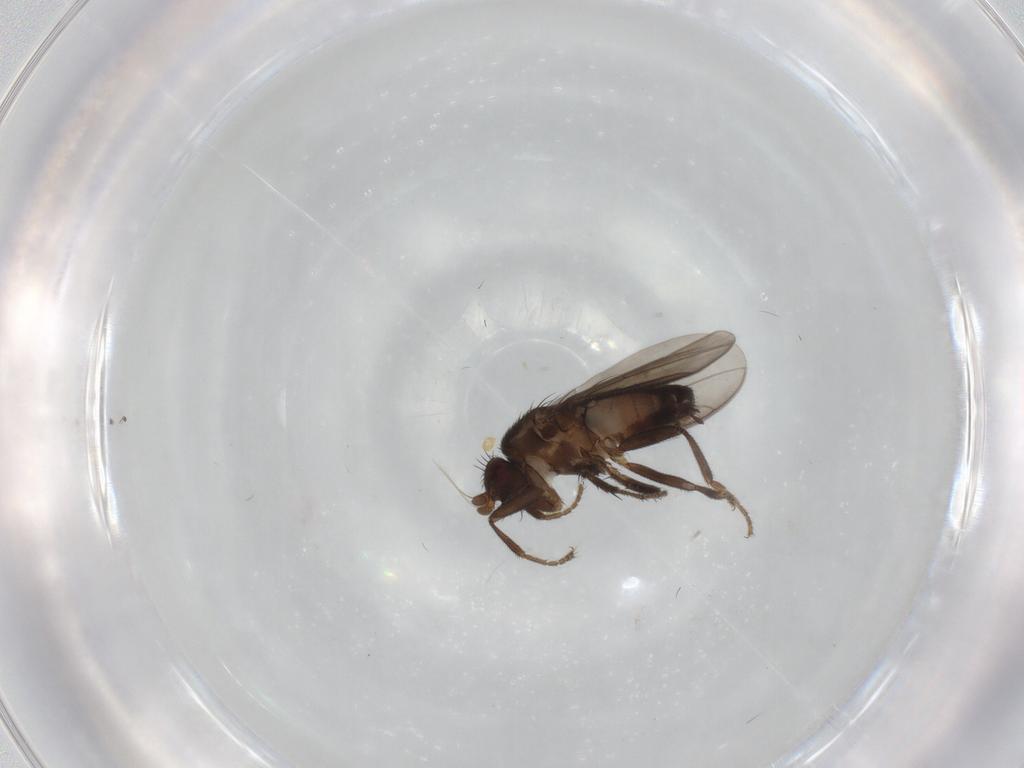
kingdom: Animalia
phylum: Arthropoda
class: Insecta
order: Diptera
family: Sphaeroceridae
